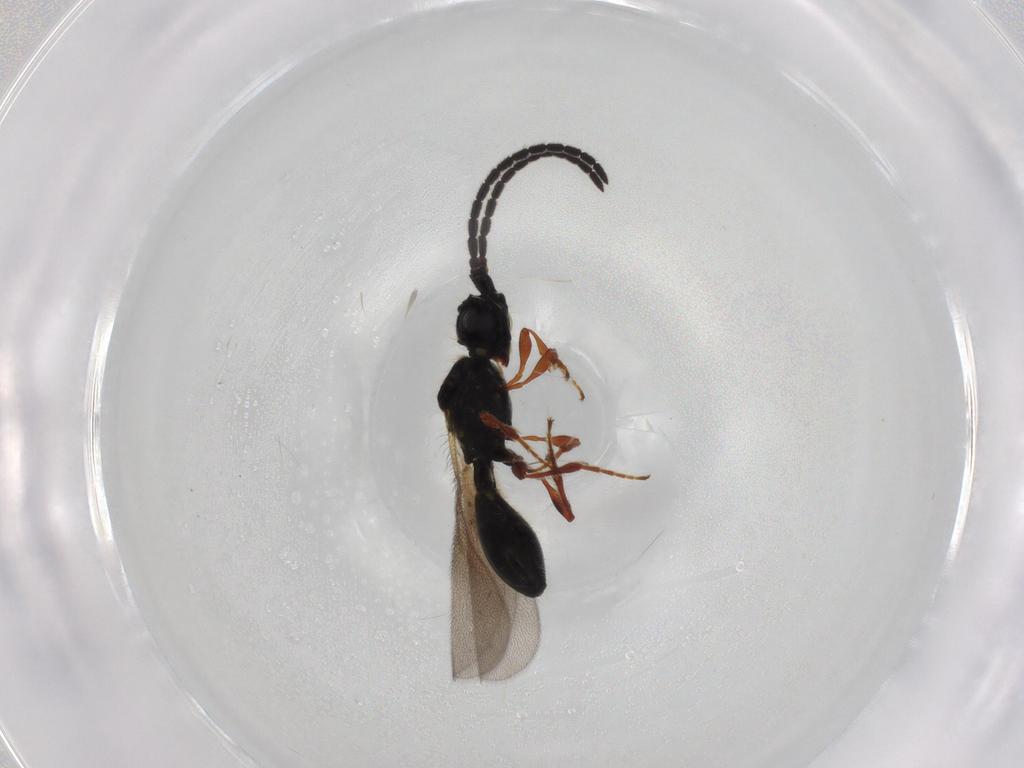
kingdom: Animalia
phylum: Arthropoda
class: Insecta
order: Hymenoptera
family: Diapriidae
